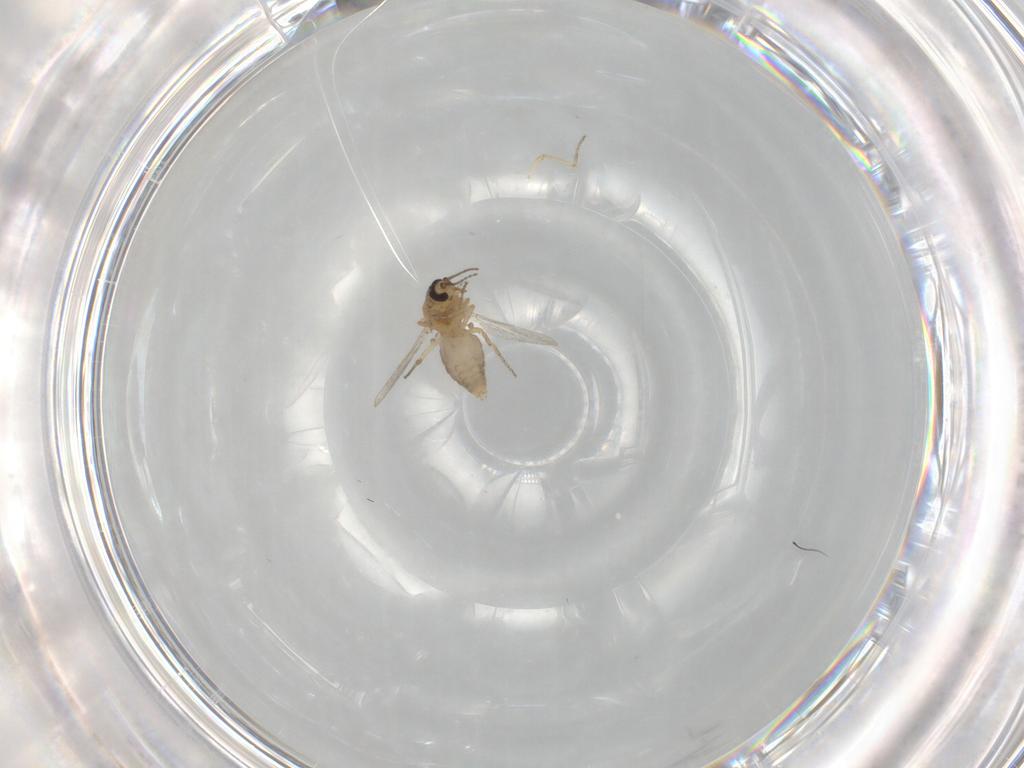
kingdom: Animalia
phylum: Arthropoda
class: Insecta
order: Diptera
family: Ceratopogonidae
